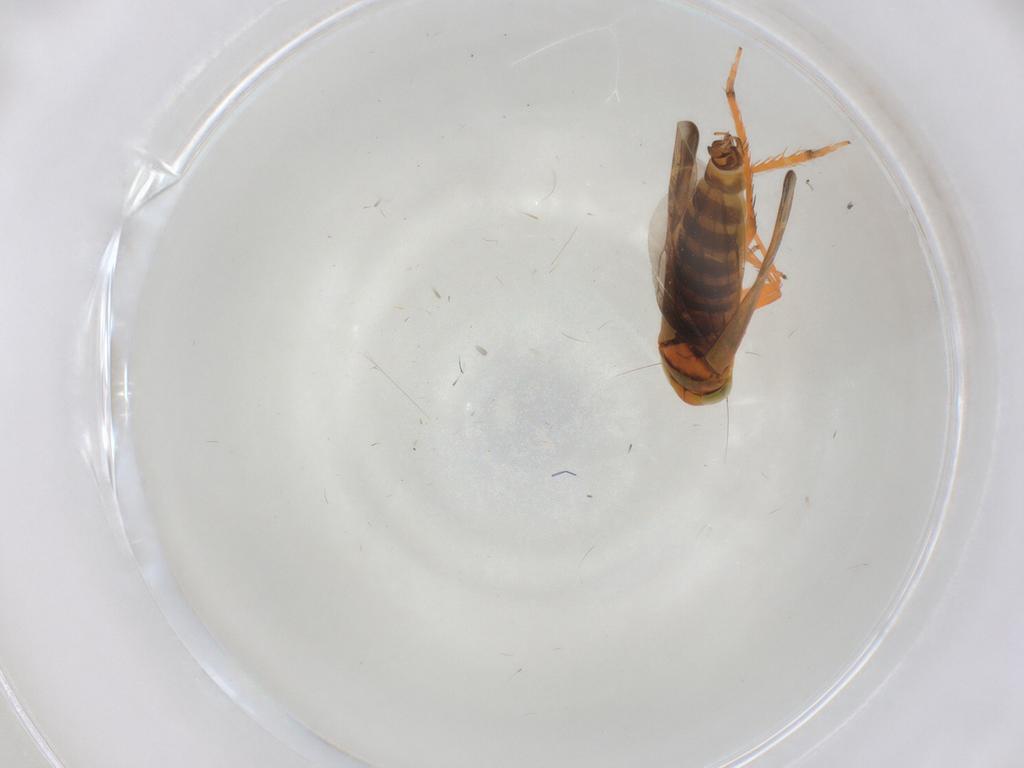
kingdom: Animalia
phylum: Arthropoda
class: Insecta
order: Hemiptera
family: Cicadellidae
